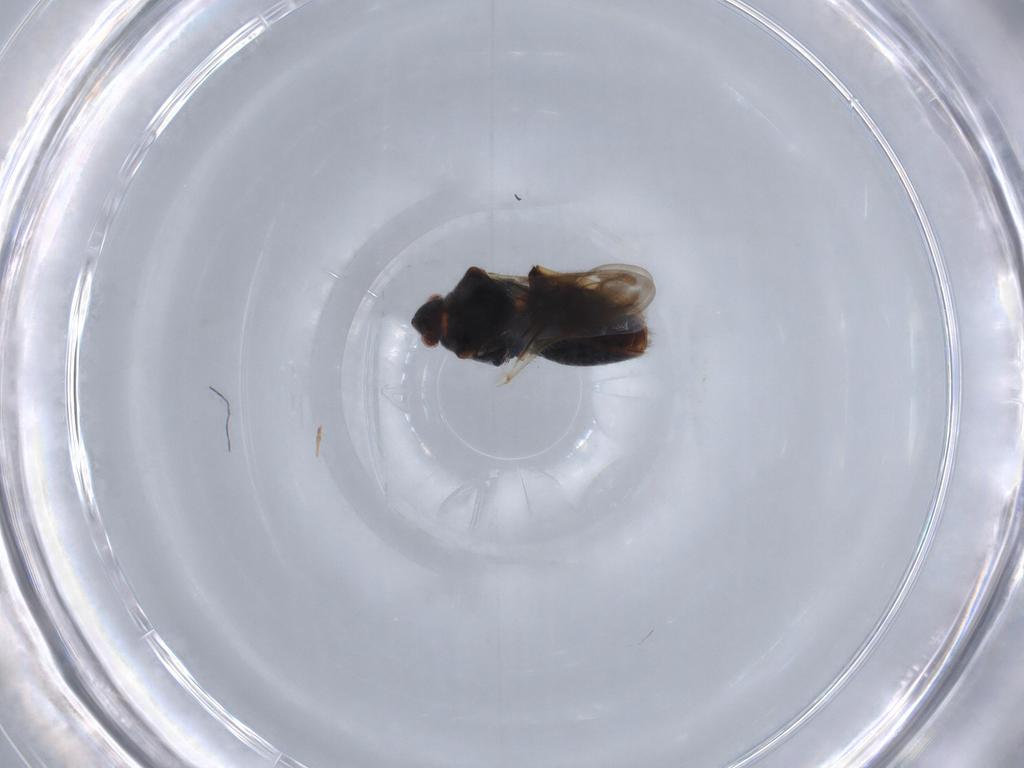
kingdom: Animalia
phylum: Arthropoda
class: Insecta
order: Hemiptera
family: Veliidae
